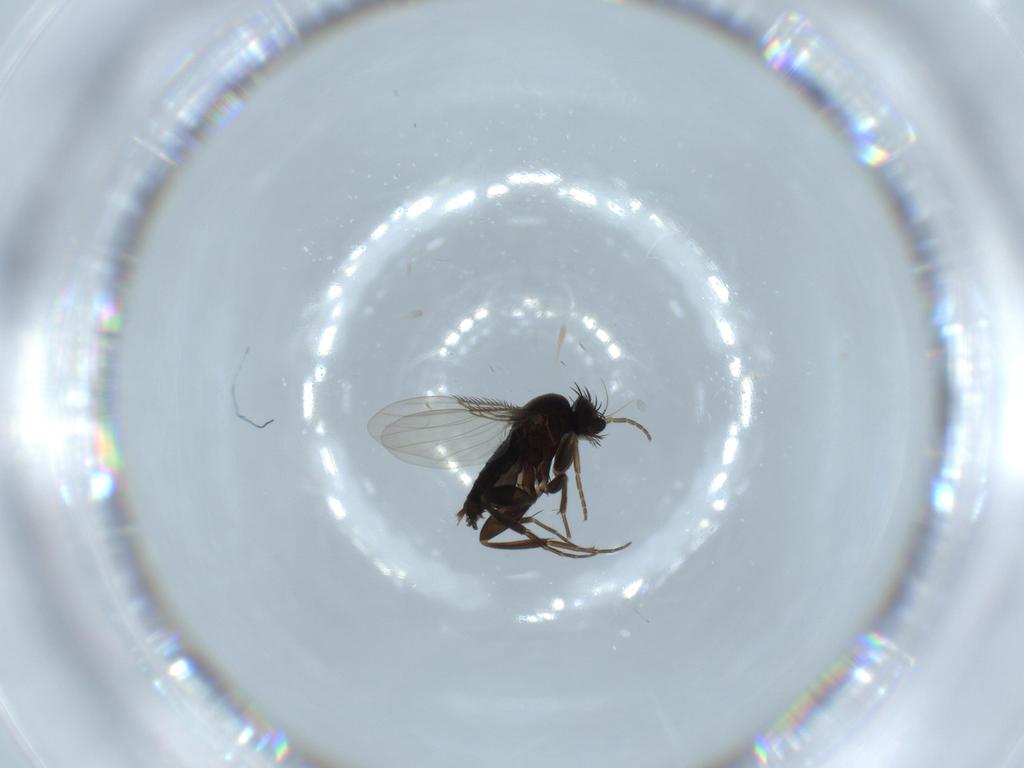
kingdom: Animalia
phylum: Arthropoda
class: Insecta
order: Diptera
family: Phoridae
